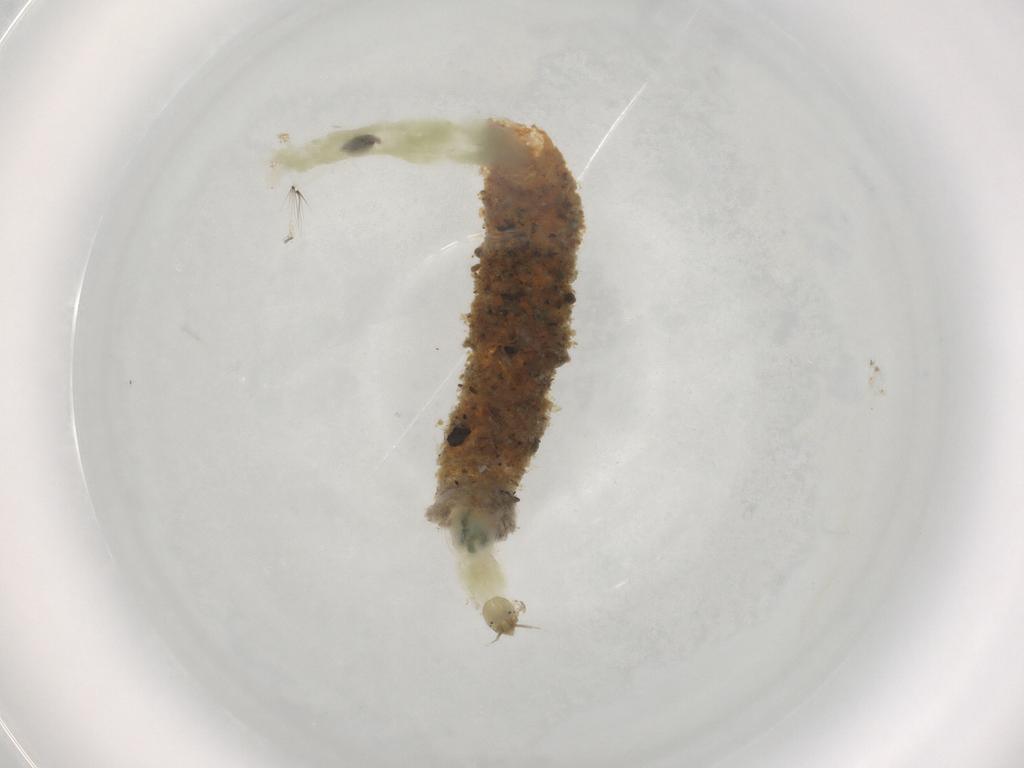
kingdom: Animalia
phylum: Arthropoda
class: Insecta
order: Diptera
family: Chironomidae
